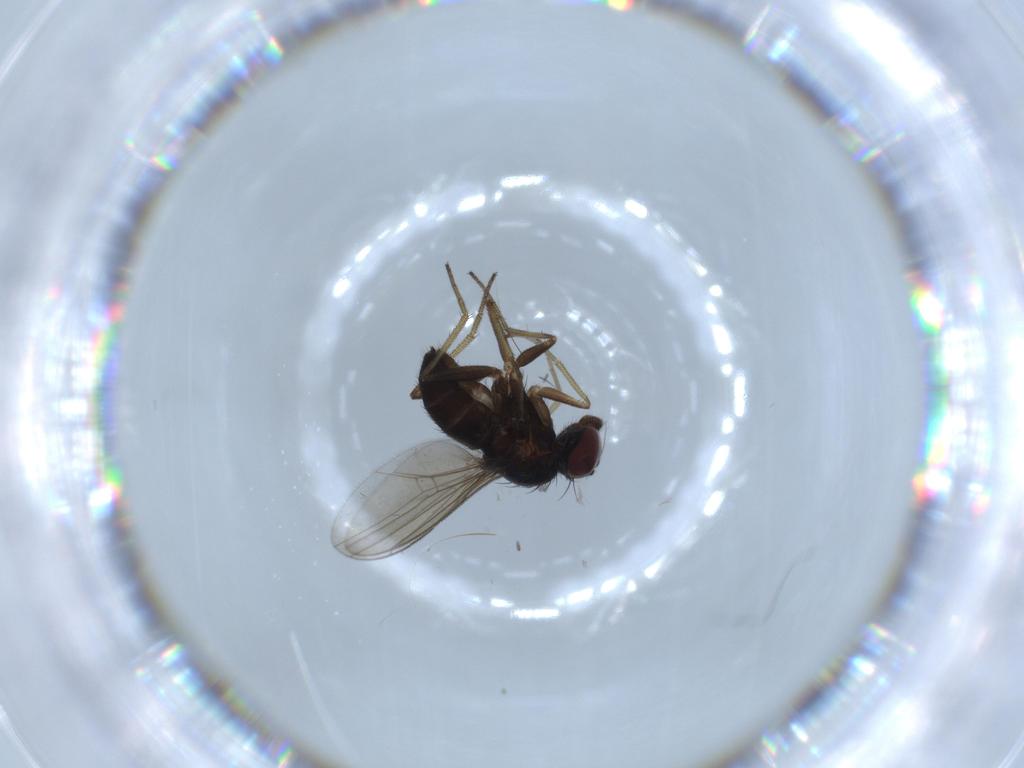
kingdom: Animalia
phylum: Arthropoda
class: Insecta
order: Diptera
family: Dolichopodidae
